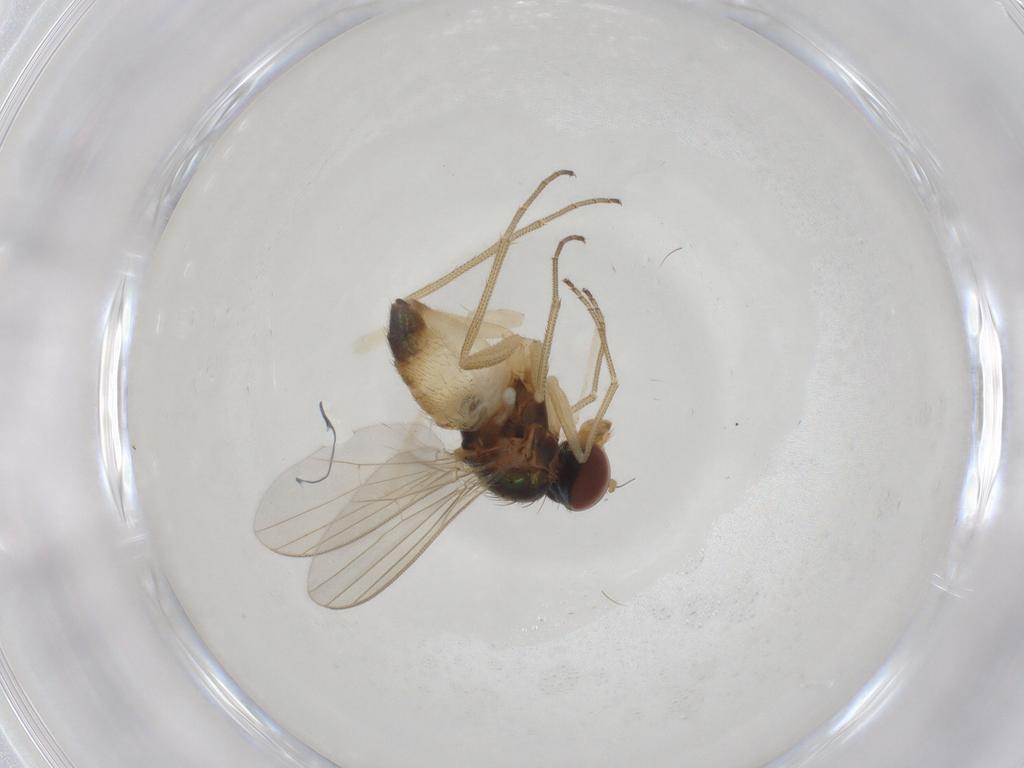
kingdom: Animalia
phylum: Arthropoda
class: Insecta
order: Diptera
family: Dolichopodidae
